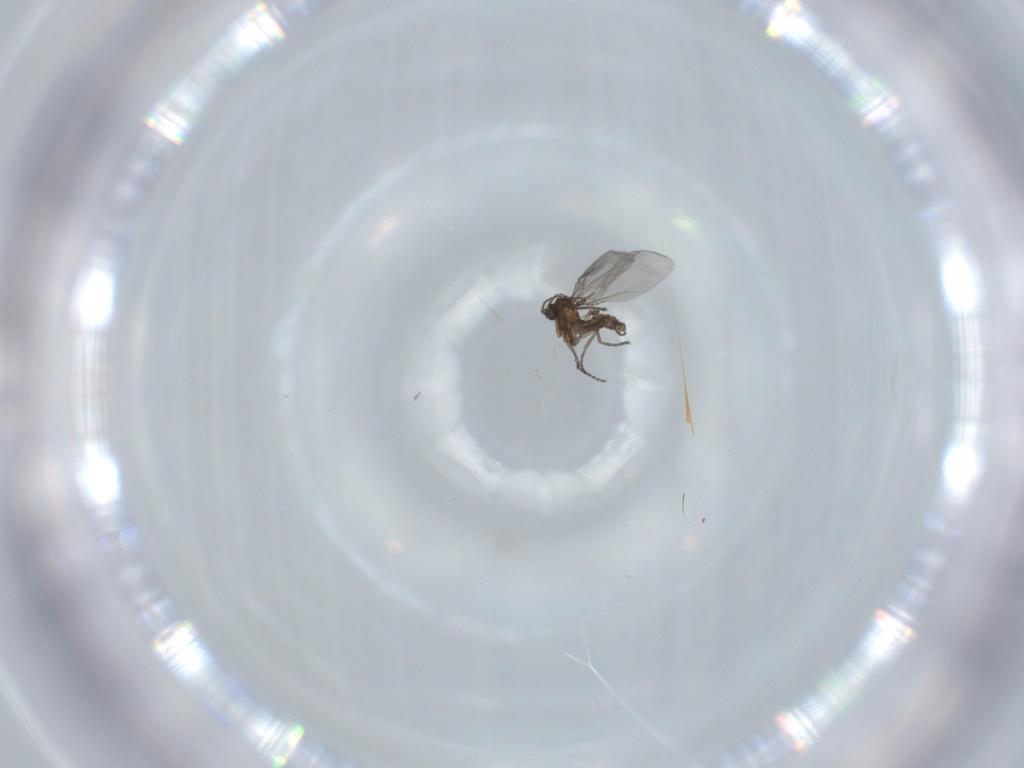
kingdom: Animalia
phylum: Arthropoda
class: Insecta
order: Diptera
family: Sciaridae
